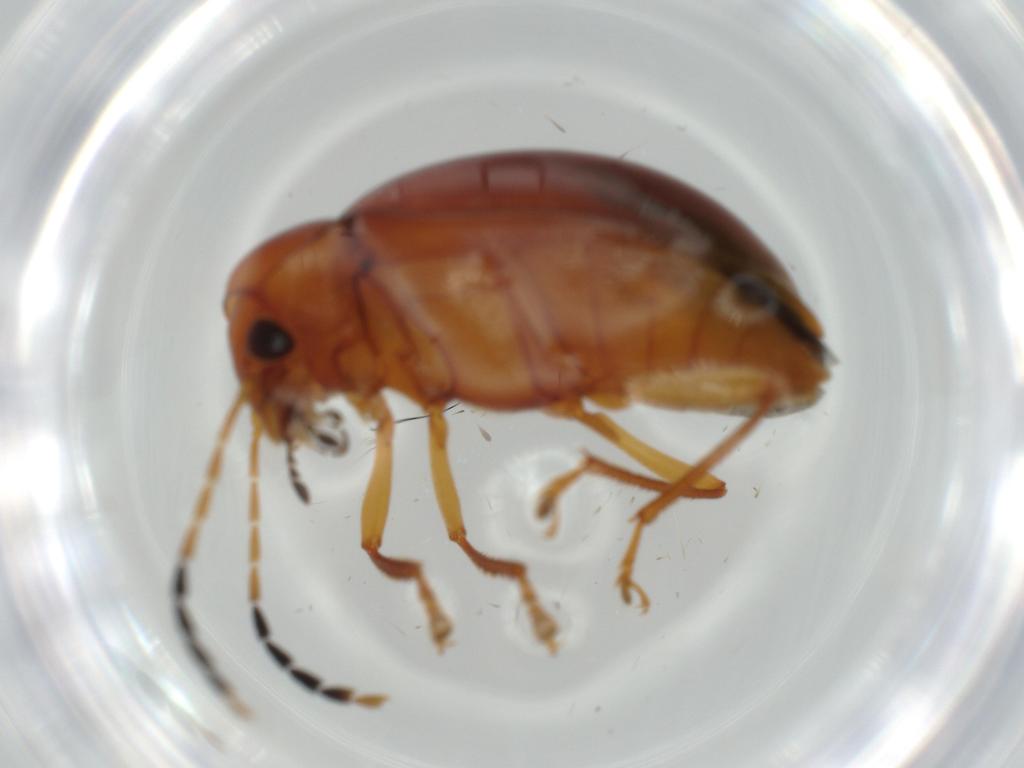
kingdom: Animalia
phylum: Arthropoda
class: Insecta
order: Coleoptera
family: Ptilodactylidae
